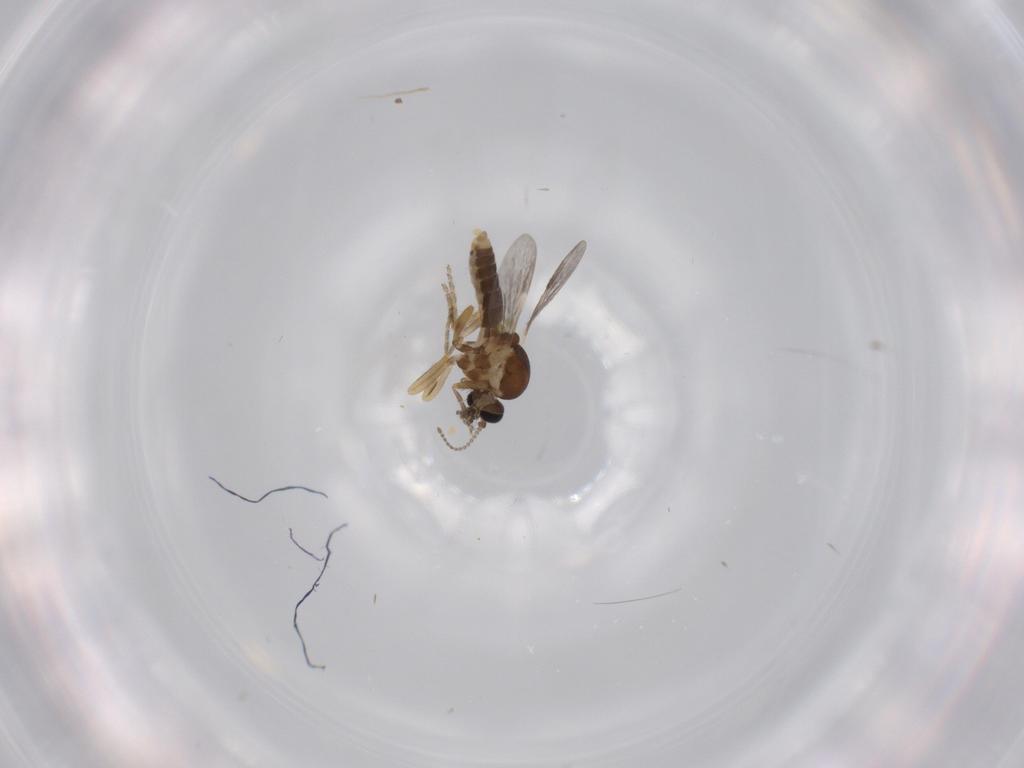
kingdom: Animalia
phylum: Arthropoda
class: Insecta
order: Diptera
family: Ceratopogonidae
